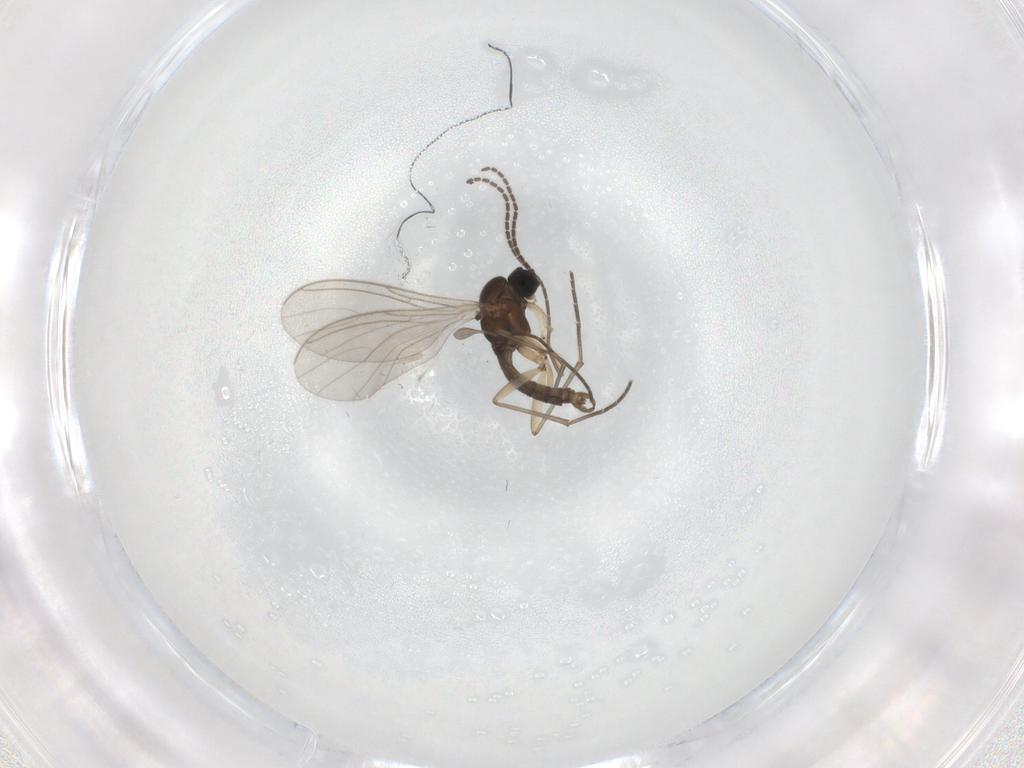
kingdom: Animalia
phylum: Arthropoda
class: Insecta
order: Diptera
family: Sciaridae
